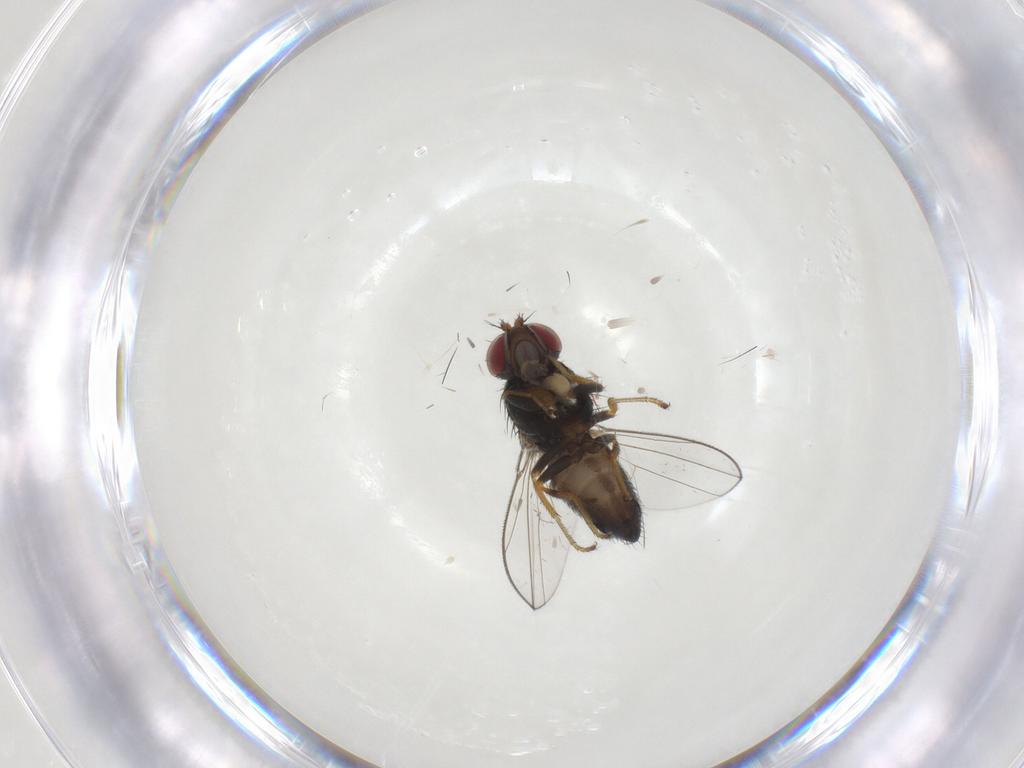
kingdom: Animalia
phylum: Arthropoda
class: Insecta
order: Diptera
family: Ephydridae
